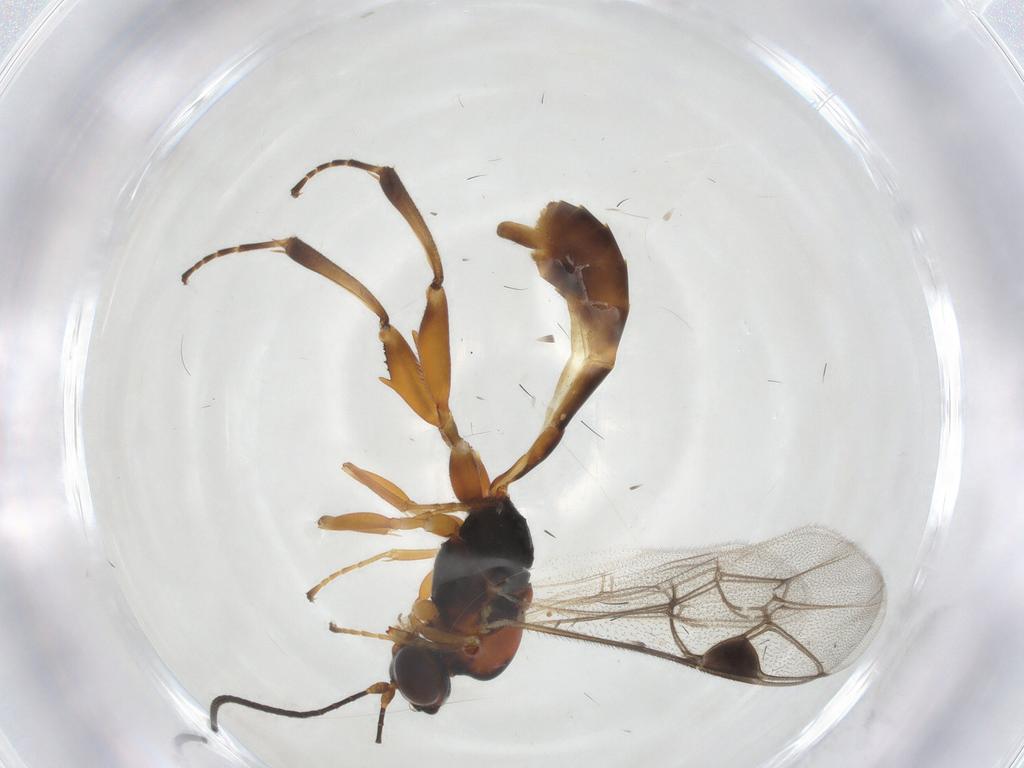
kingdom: Animalia
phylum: Arthropoda
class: Insecta
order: Hymenoptera
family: Ichneumonidae
